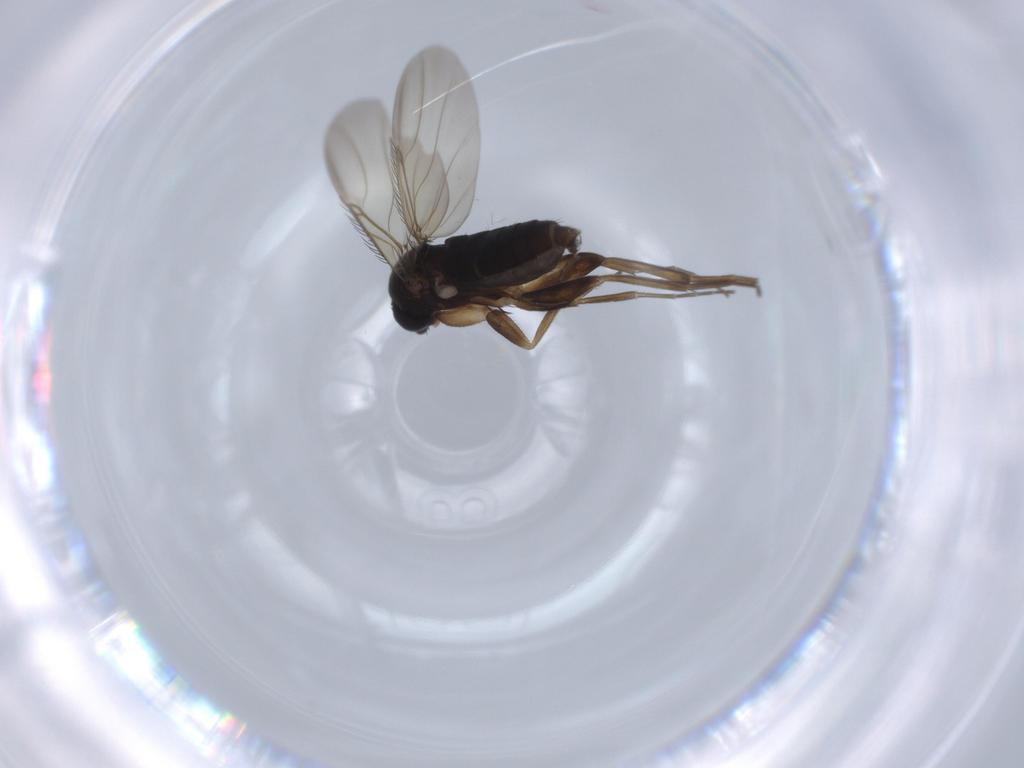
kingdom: Animalia
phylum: Arthropoda
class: Insecta
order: Diptera
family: Phoridae
